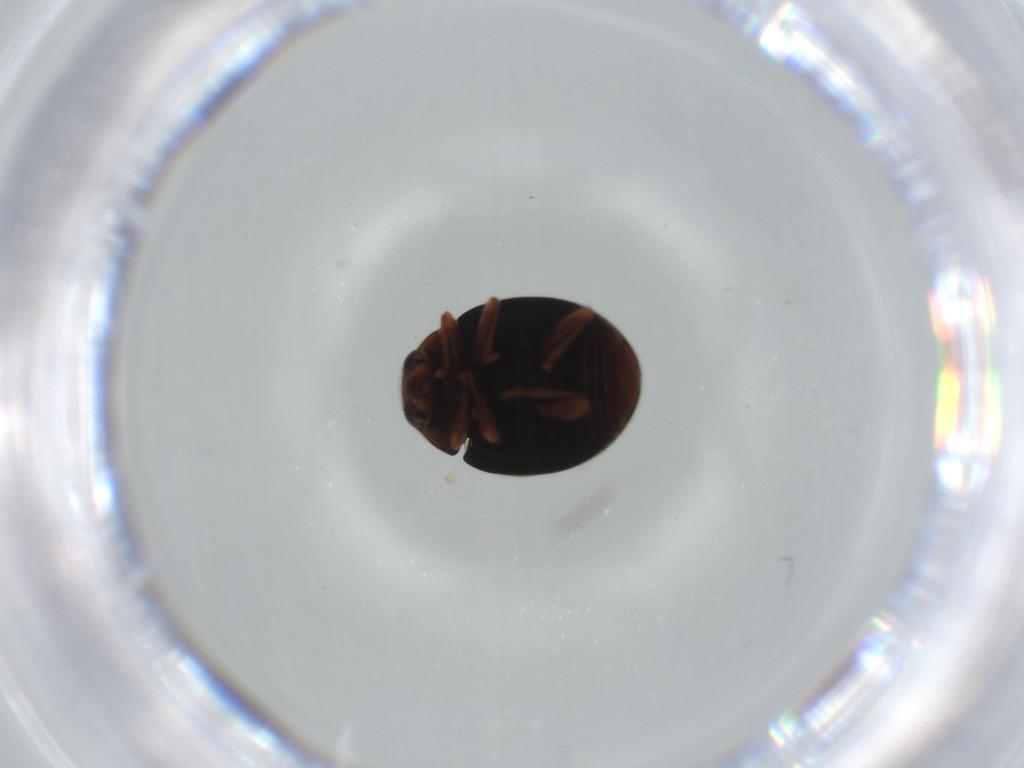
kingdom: Animalia
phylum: Arthropoda
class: Insecta
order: Coleoptera
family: Coccinellidae
